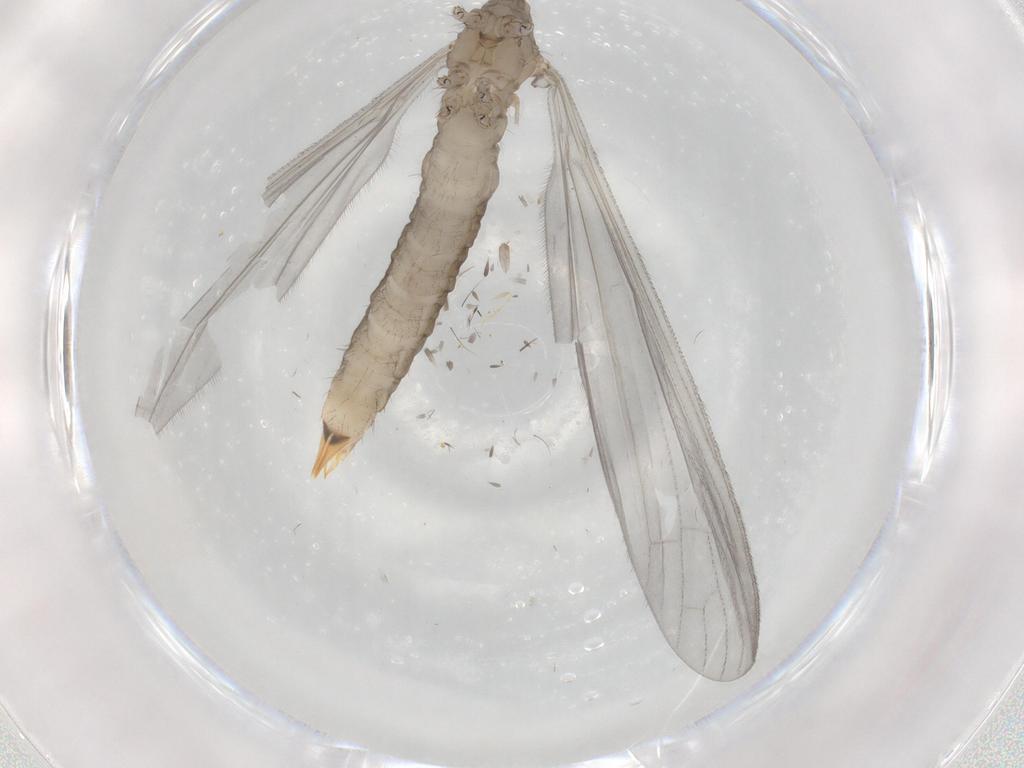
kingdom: Animalia
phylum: Arthropoda
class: Insecta
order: Diptera
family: Pediciidae
